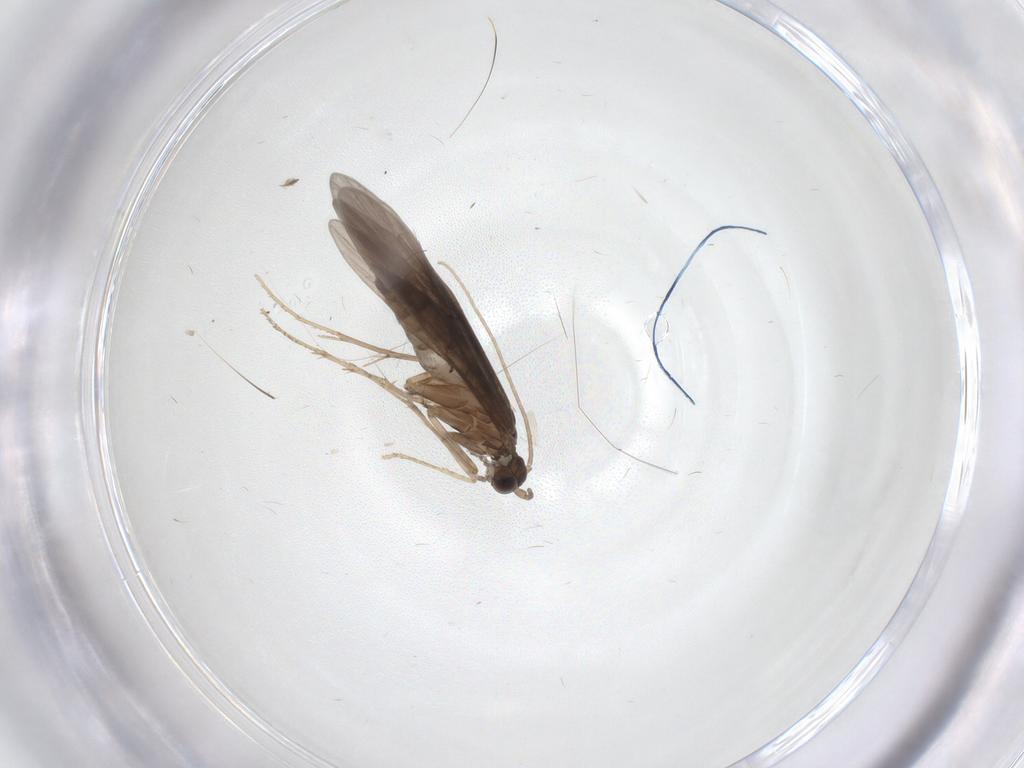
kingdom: Animalia
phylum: Arthropoda
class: Insecta
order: Trichoptera
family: Xiphocentronidae
